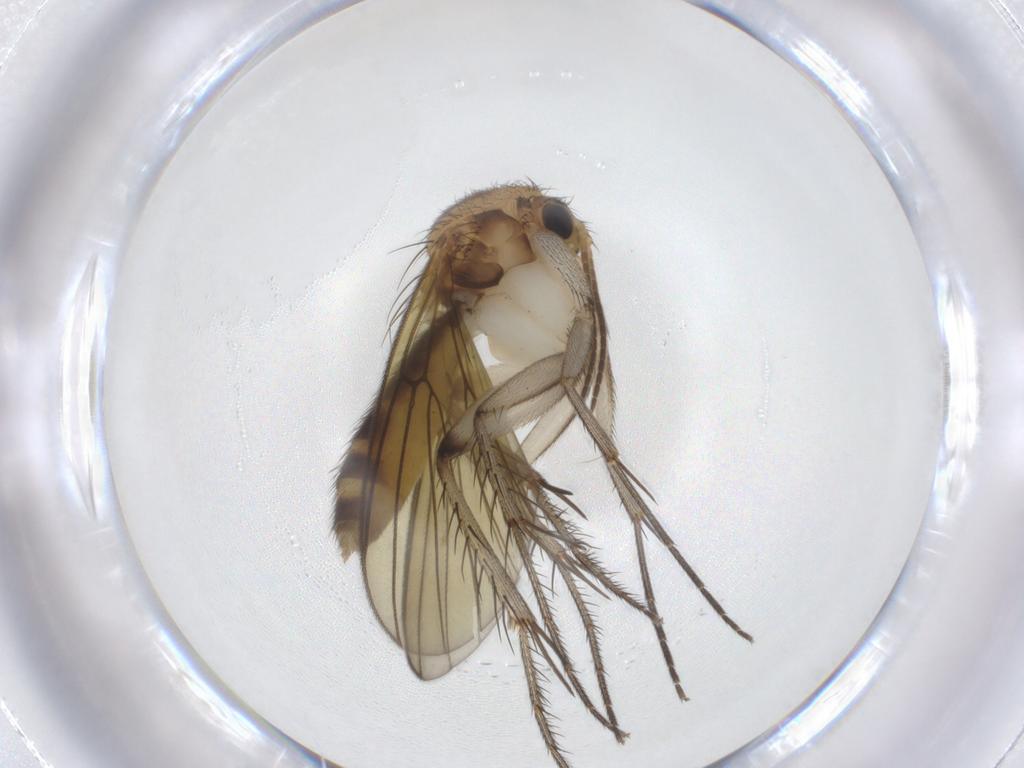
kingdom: Animalia
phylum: Arthropoda
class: Insecta
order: Diptera
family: Mycetophilidae
